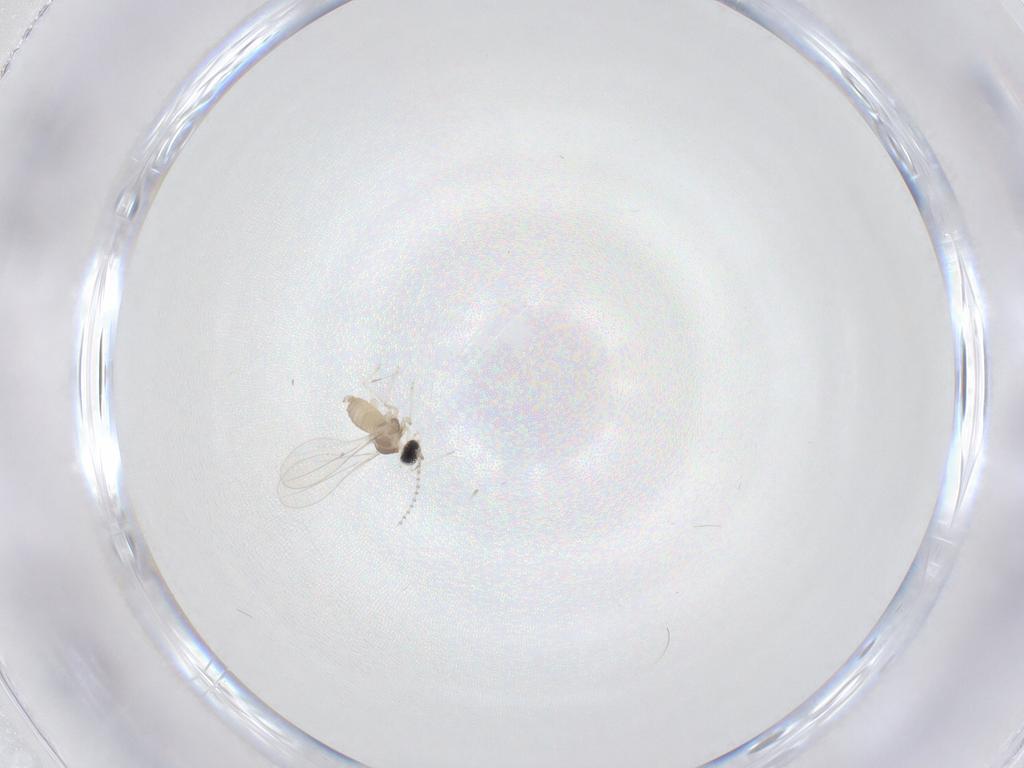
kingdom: Animalia
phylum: Arthropoda
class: Insecta
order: Diptera
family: Cecidomyiidae
